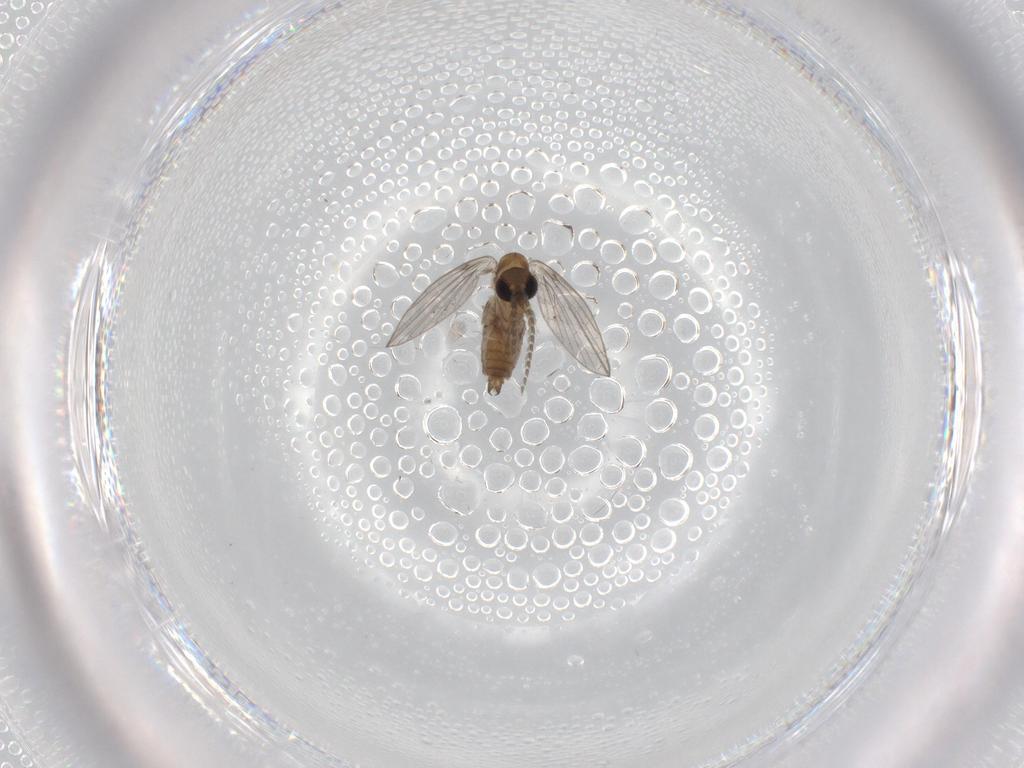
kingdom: Animalia
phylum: Arthropoda
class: Insecta
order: Diptera
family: Chironomidae
